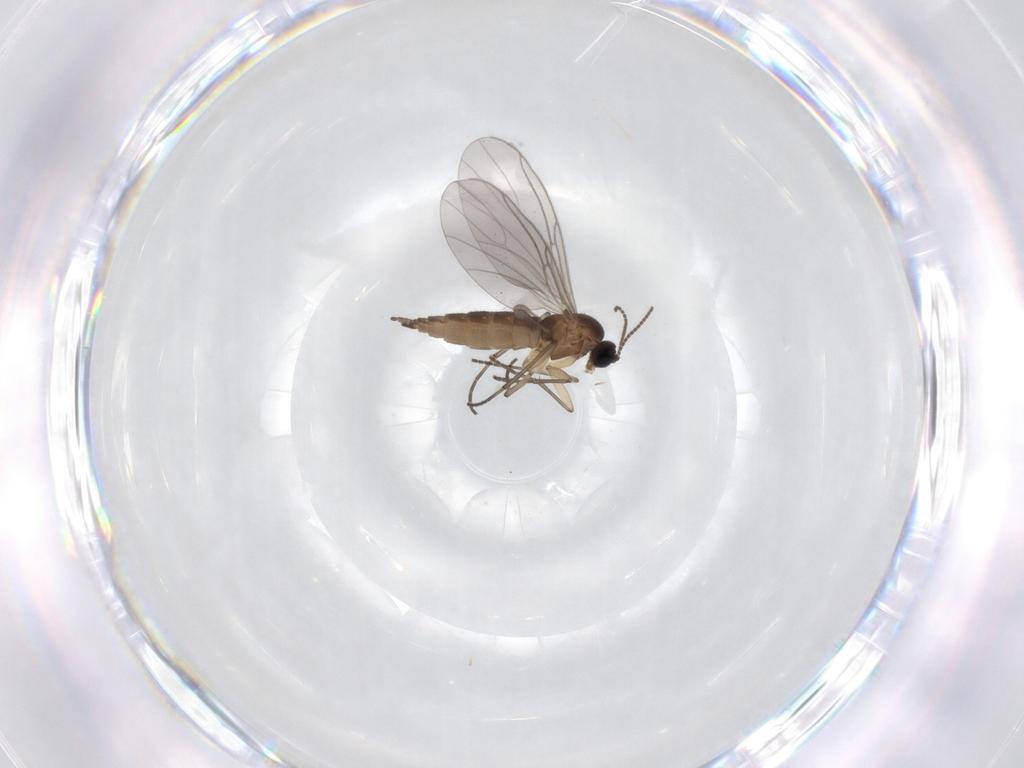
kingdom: Animalia
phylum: Arthropoda
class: Insecta
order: Diptera
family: Sciaridae
